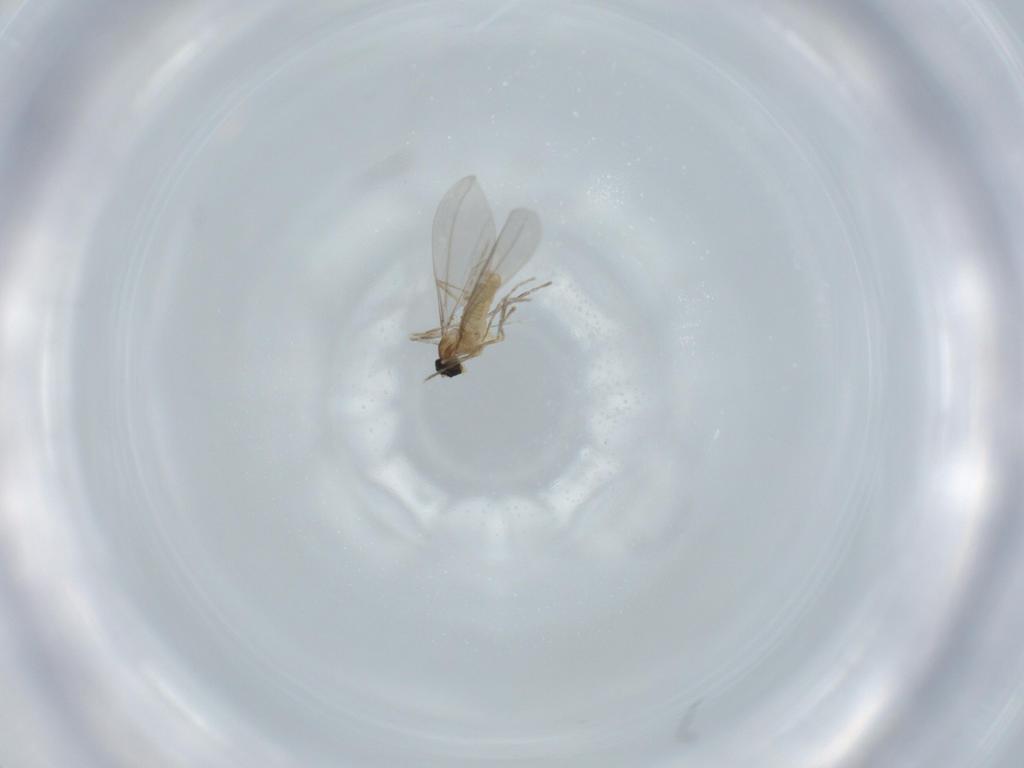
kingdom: Animalia
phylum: Arthropoda
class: Insecta
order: Diptera
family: Cecidomyiidae
